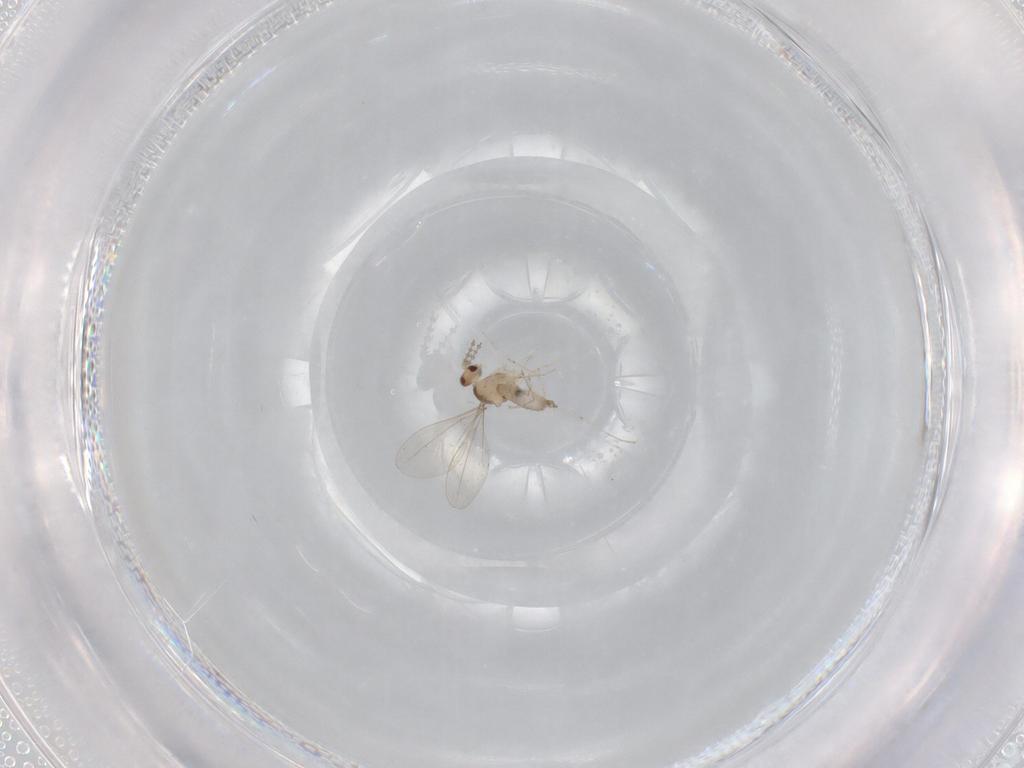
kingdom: Animalia
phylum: Arthropoda
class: Insecta
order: Diptera
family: Cecidomyiidae
